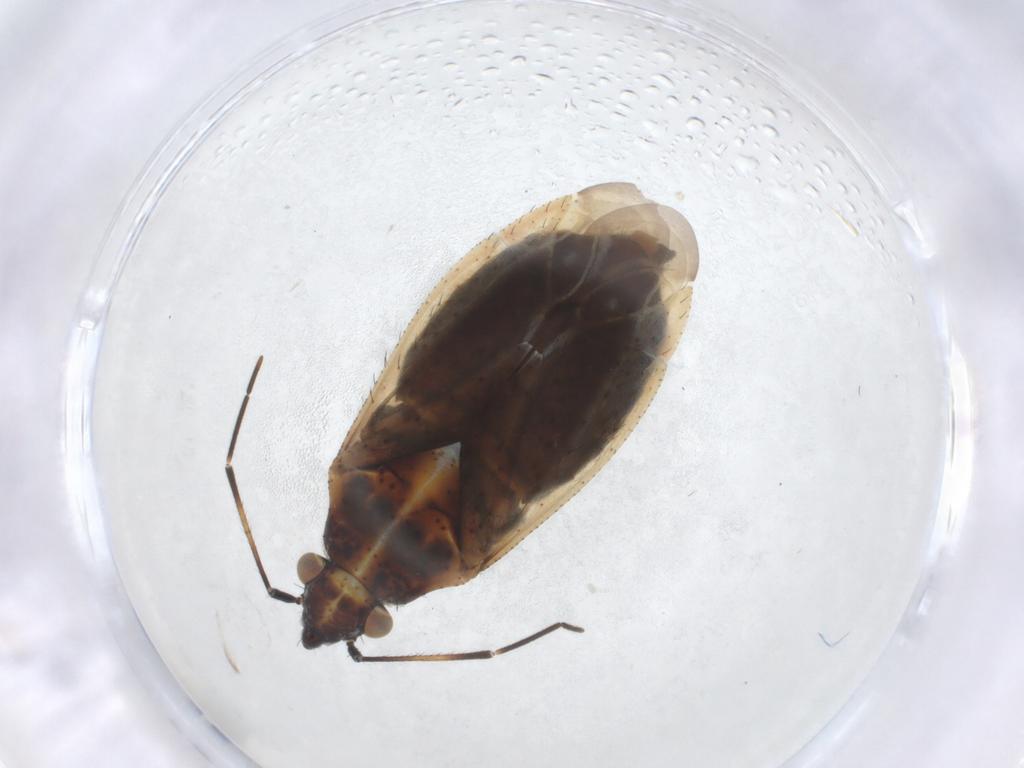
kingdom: Animalia
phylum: Arthropoda
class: Insecta
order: Hemiptera
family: Miridae
